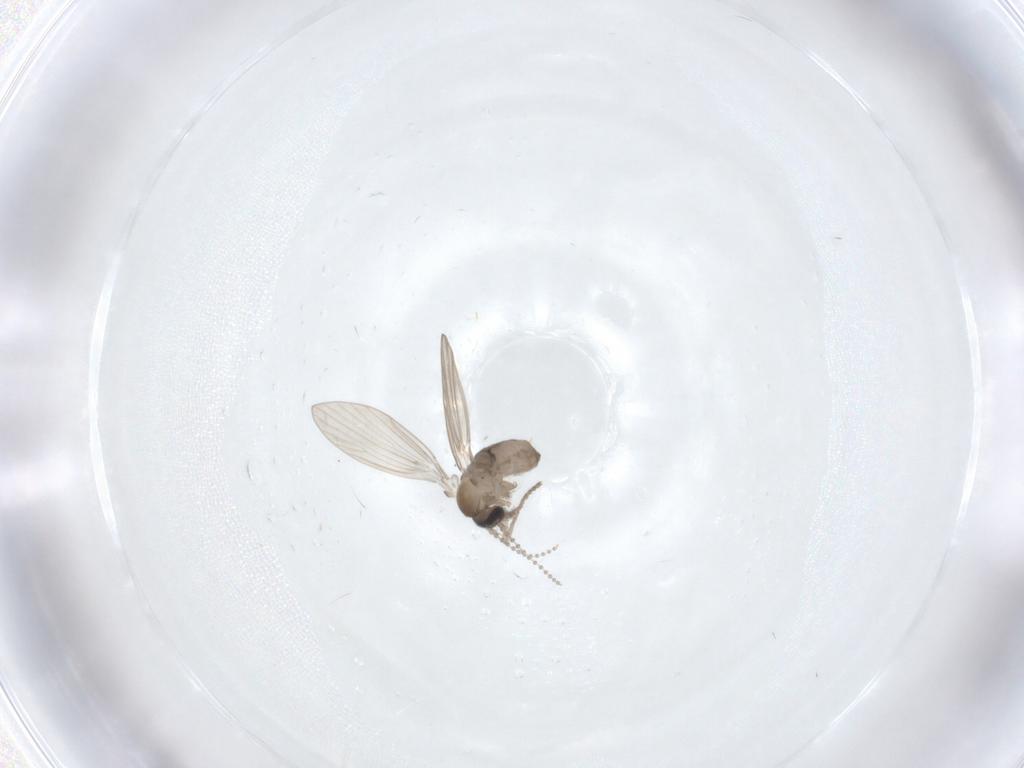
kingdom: Animalia
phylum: Arthropoda
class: Insecta
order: Diptera
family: Psychodidae
